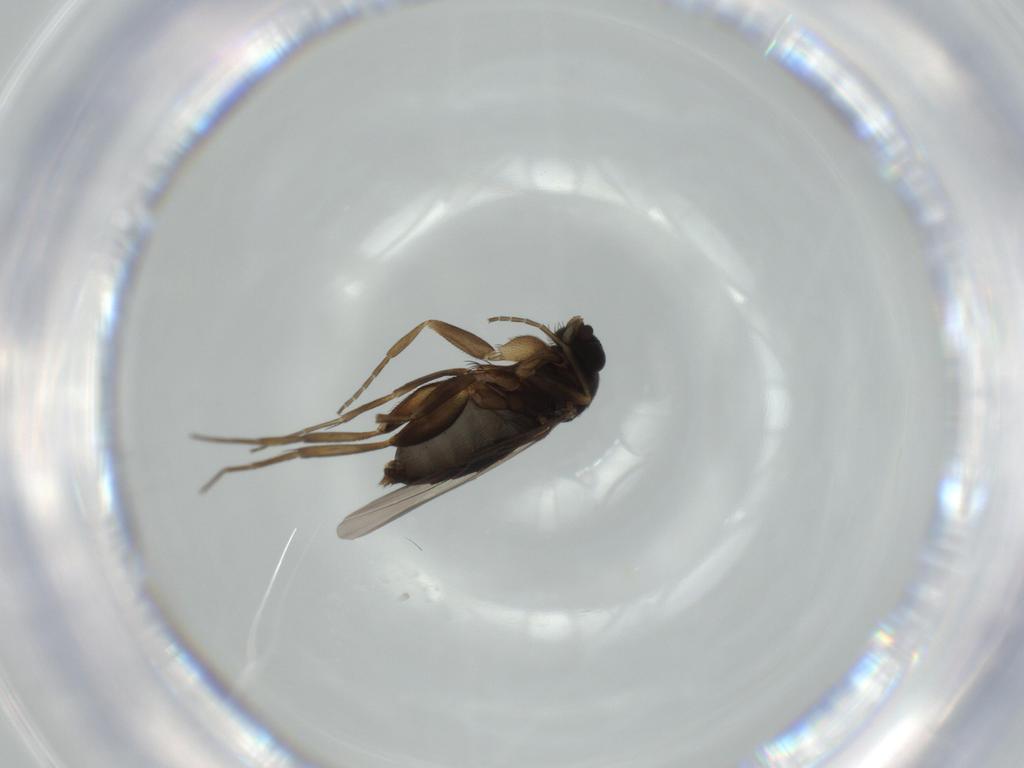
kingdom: Animalia
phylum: Arthropoda
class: Insecta
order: Diptera
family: Phoridae
